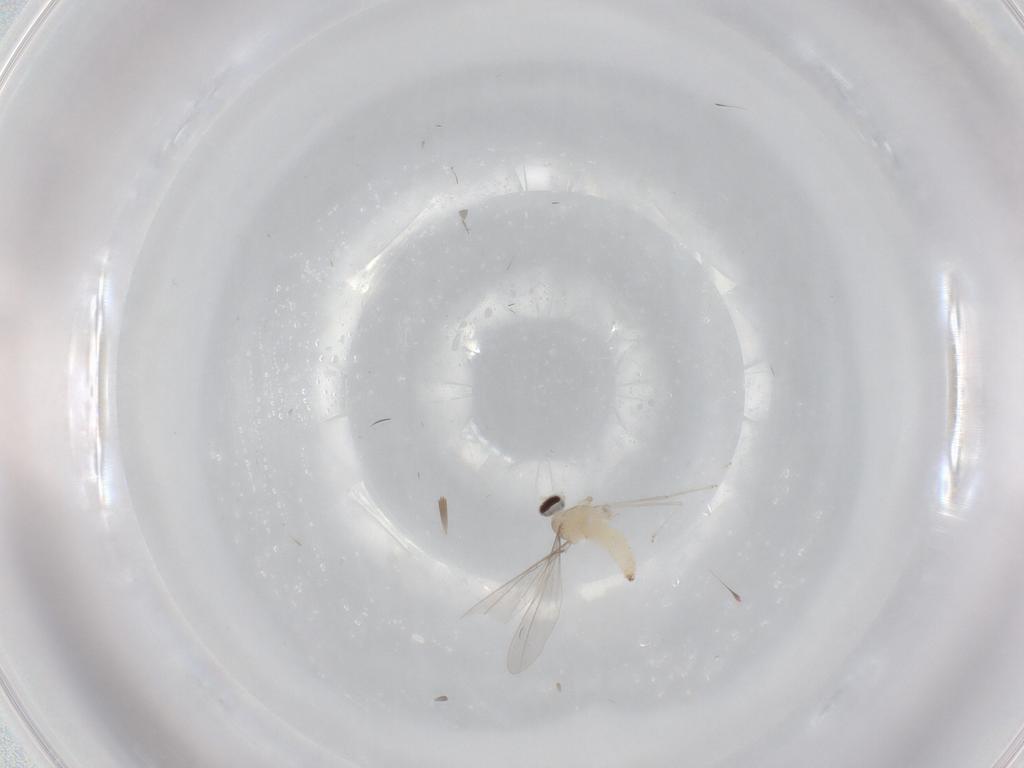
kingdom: Animalia
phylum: Arthropoda
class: Insecta
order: Diptera
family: Cecidomyiidae
